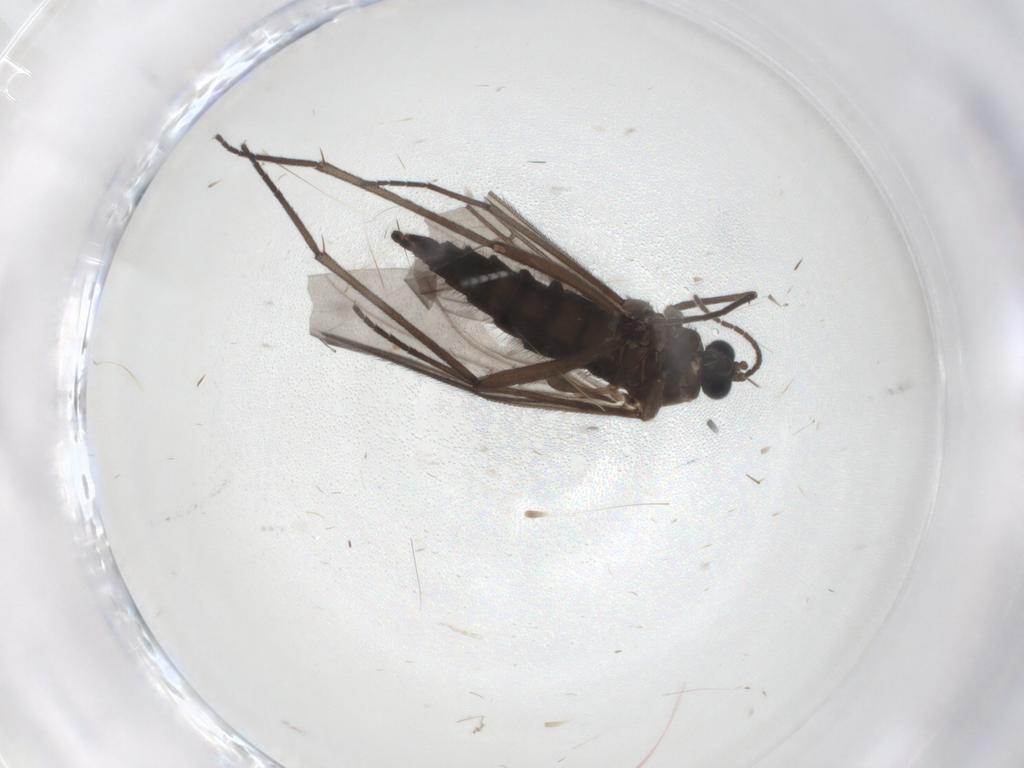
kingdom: Animalia
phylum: Arthropoda
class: Insecta
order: Diptera
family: Sciaridae
